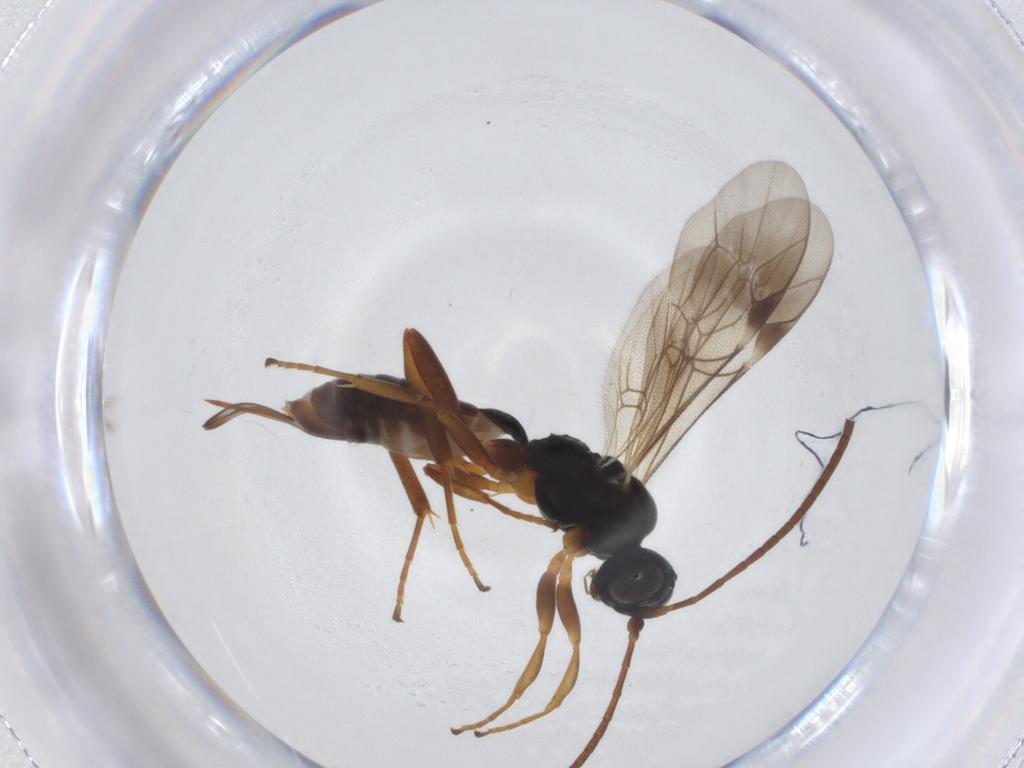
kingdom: Animalia
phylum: Arthropoda
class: Insecta
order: Hymenoptera
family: Ichneumonidae
